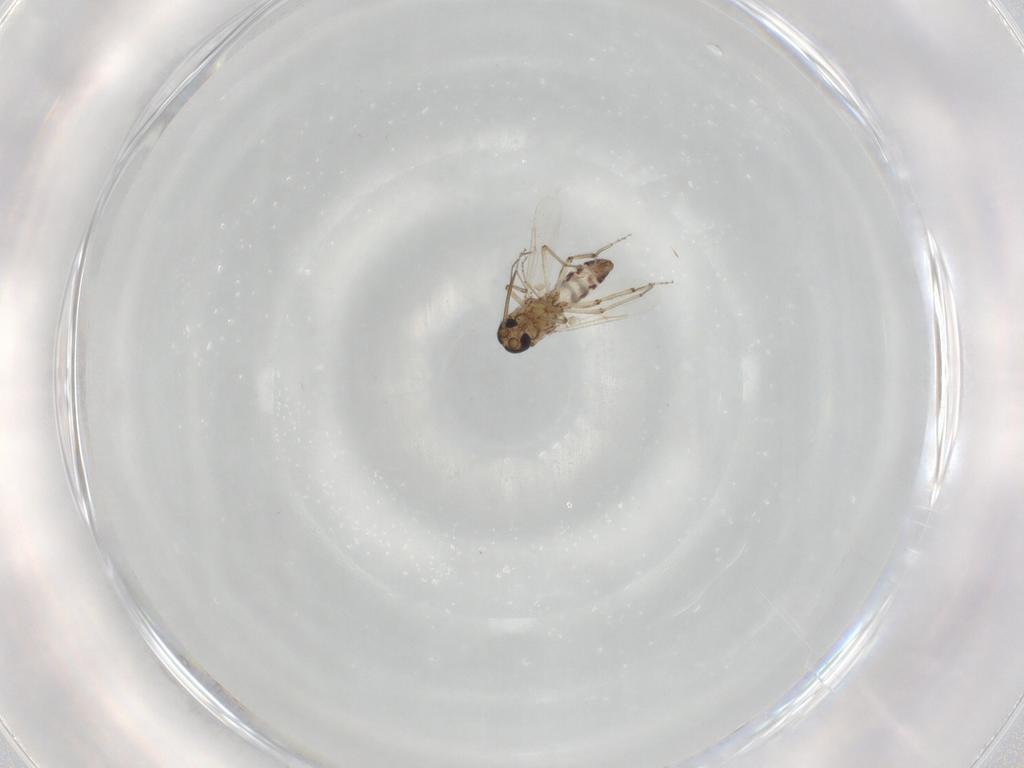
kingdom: Animalia
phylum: Arthropoda
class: Insecta
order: Diptera
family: Ceratopogonidae
